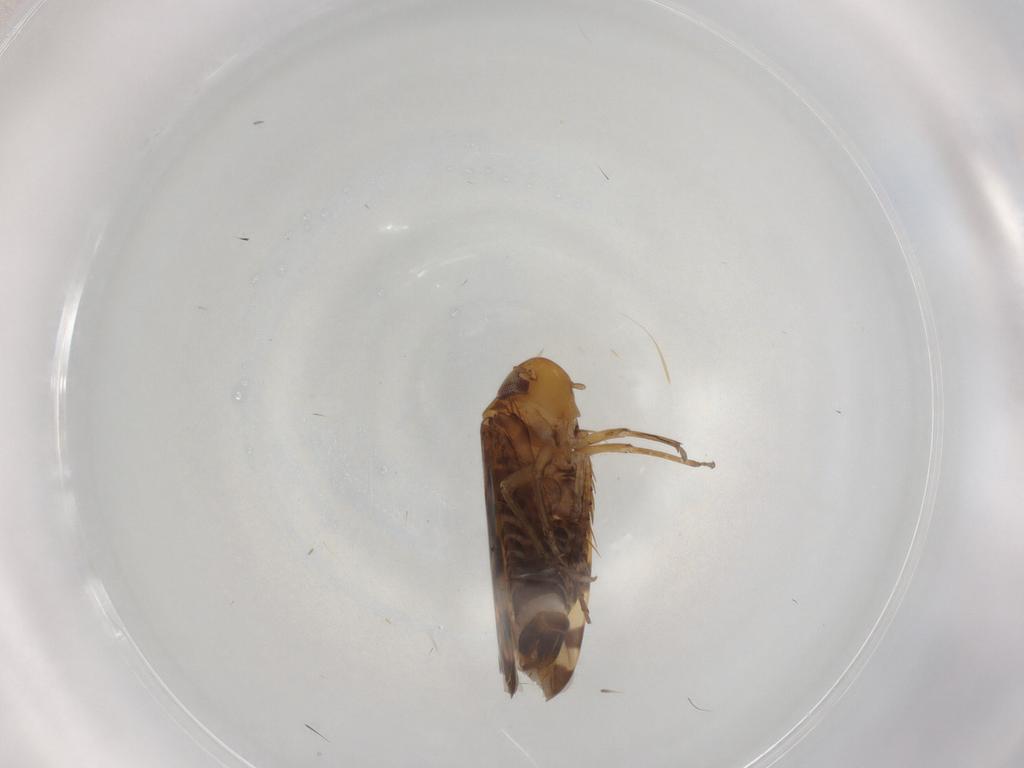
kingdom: Animalia
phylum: Arthropoda
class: Insecta
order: Hemiptera
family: Cicadellidae
